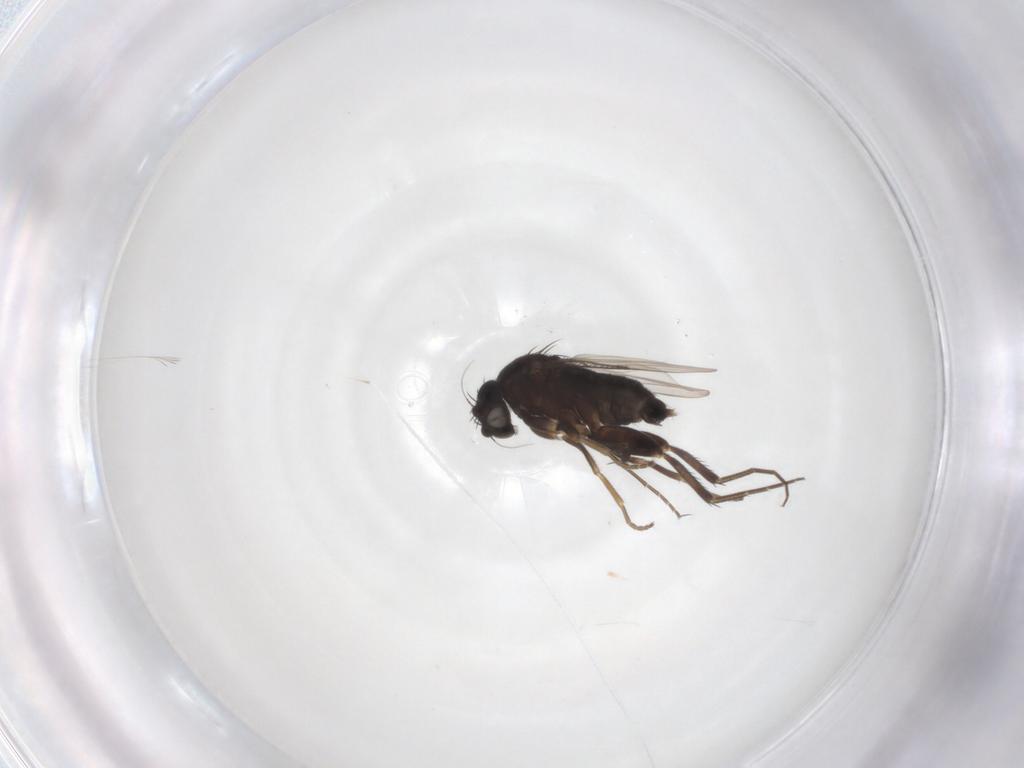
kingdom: Animalia
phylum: Arthropoda
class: Insecta
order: Diptera
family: Phoridae
